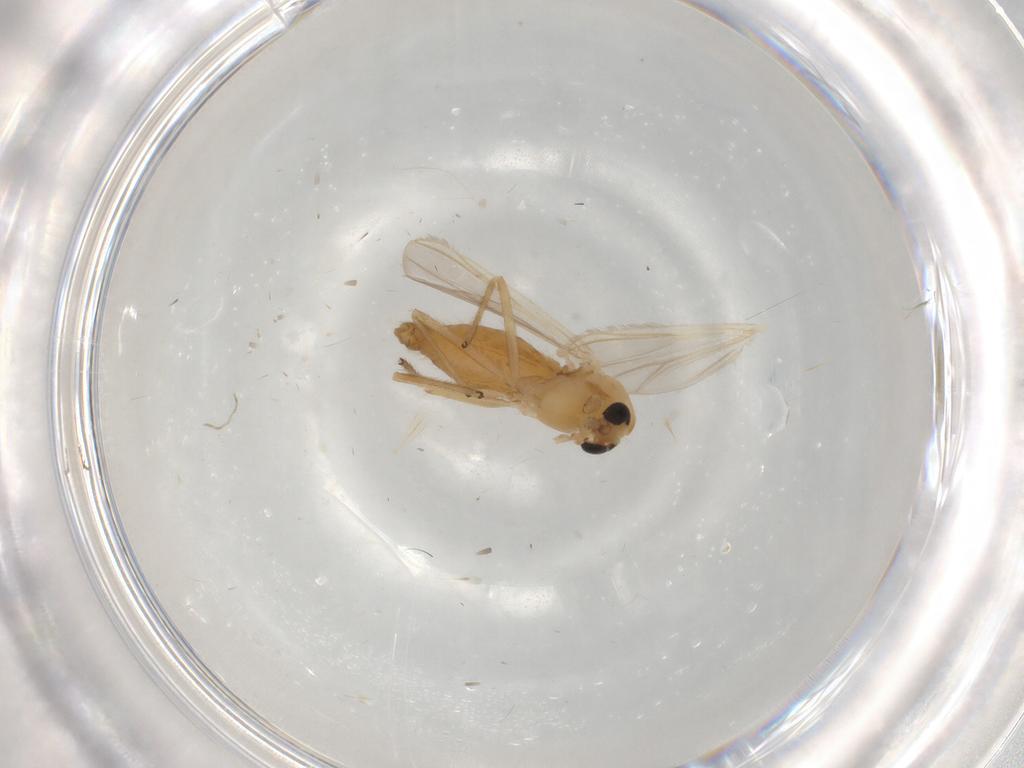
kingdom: Animalia
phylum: Arthropoda
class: Insecta
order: Diptera
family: Chironomidae
